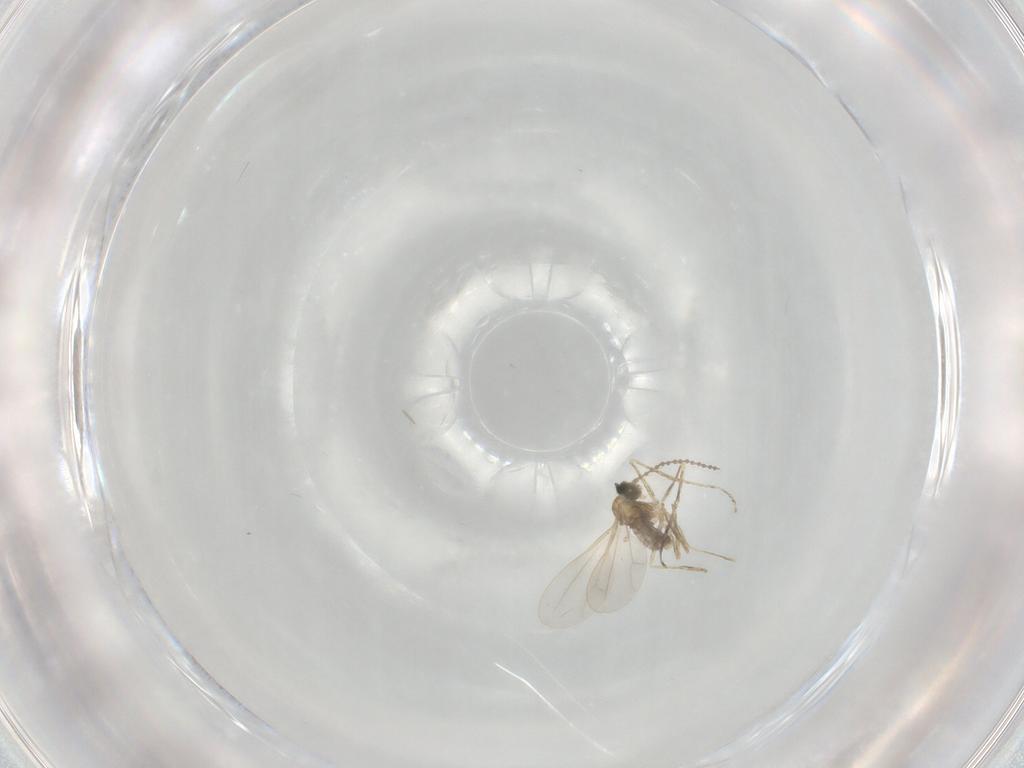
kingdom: Animalia
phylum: Arthropoda
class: Insecta
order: Diptera
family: Cecidomyiidae
